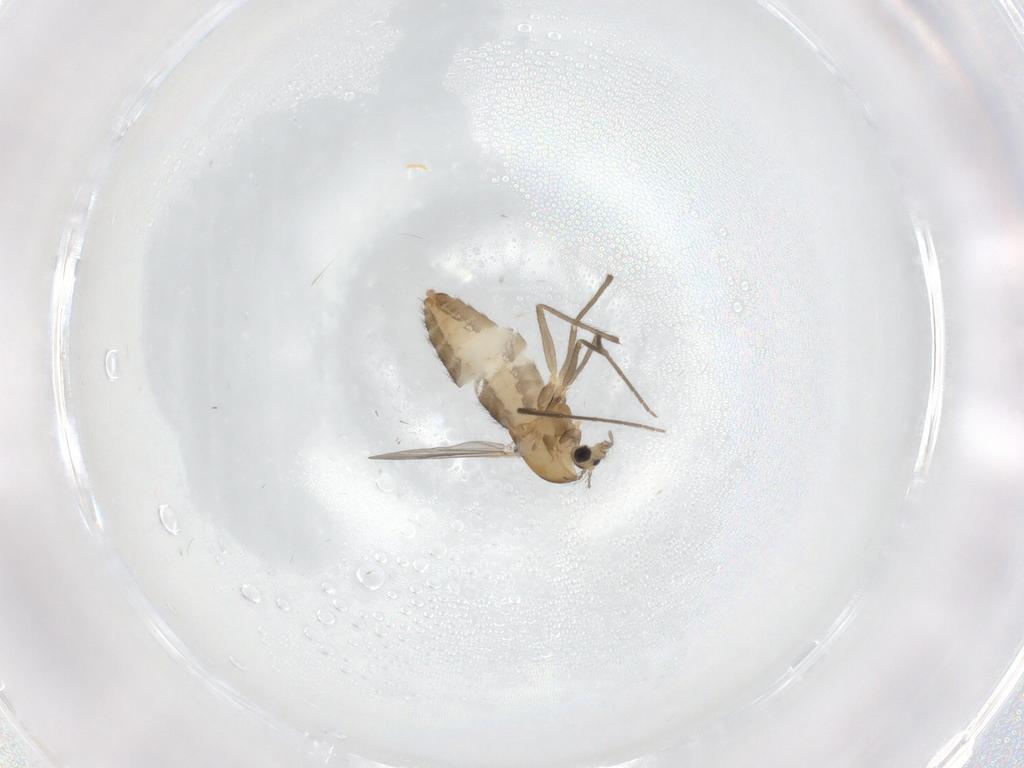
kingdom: Animalia
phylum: Arthropoda
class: Insecta
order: Diptera
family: Chironomidae
